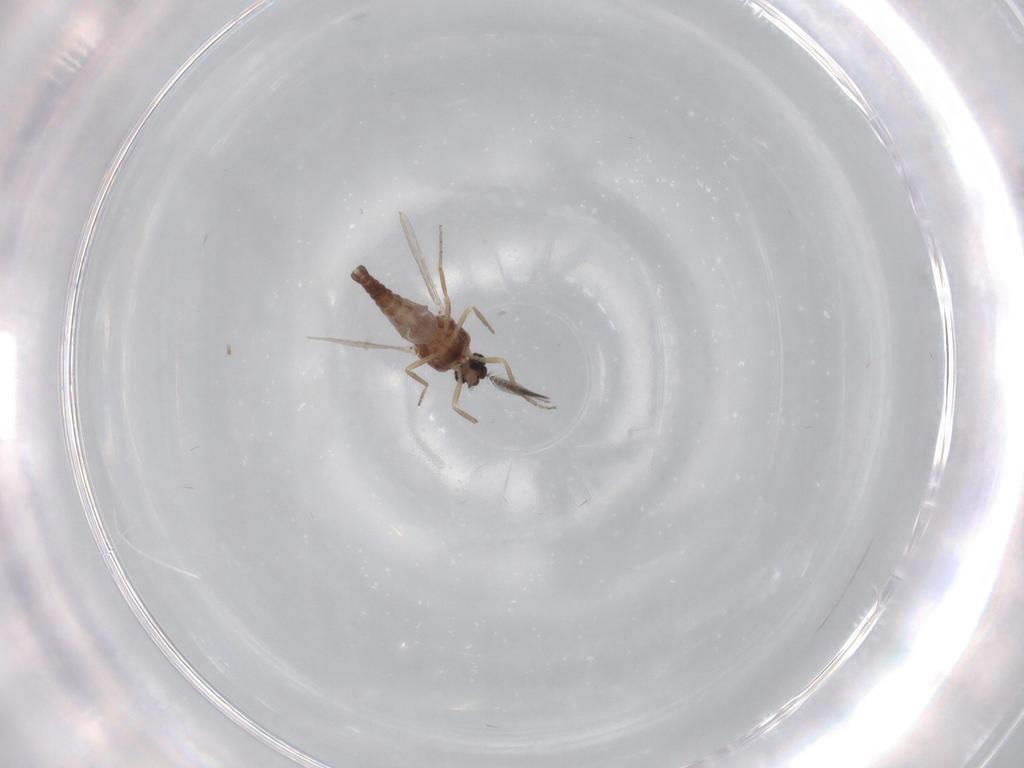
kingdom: Animalia
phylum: Arthropoda
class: Insecta
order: Diptera
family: Ceratopogonidae
